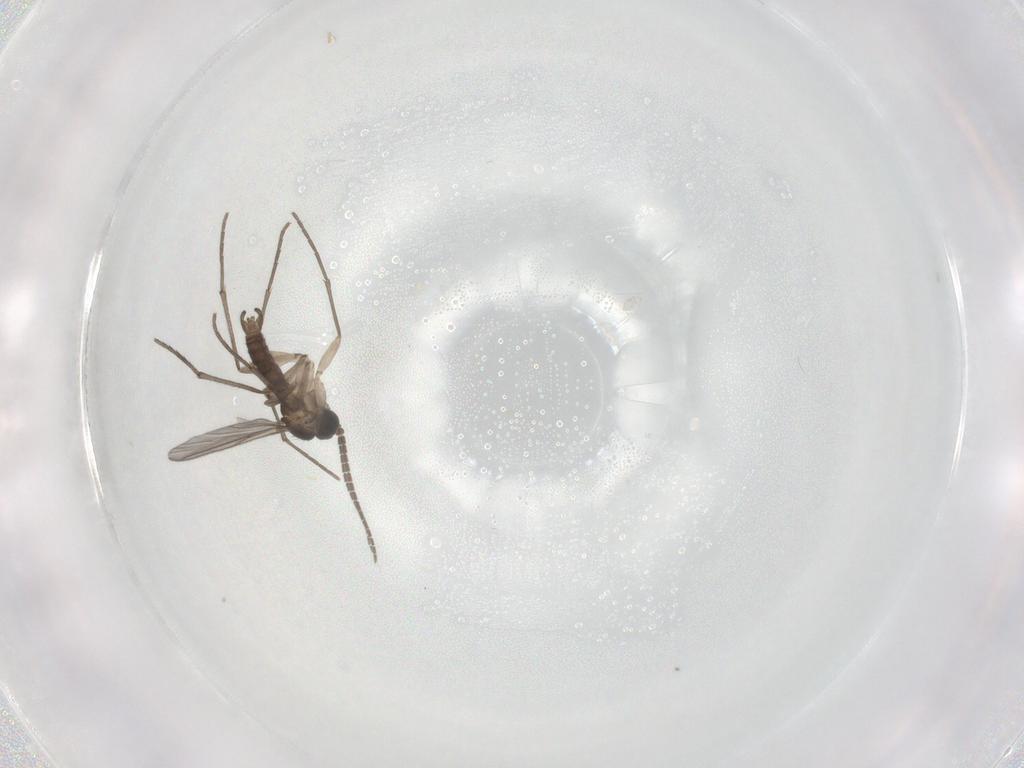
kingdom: Animalia
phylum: Arthropoda
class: Insecta
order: Diptera
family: Sciaridae
